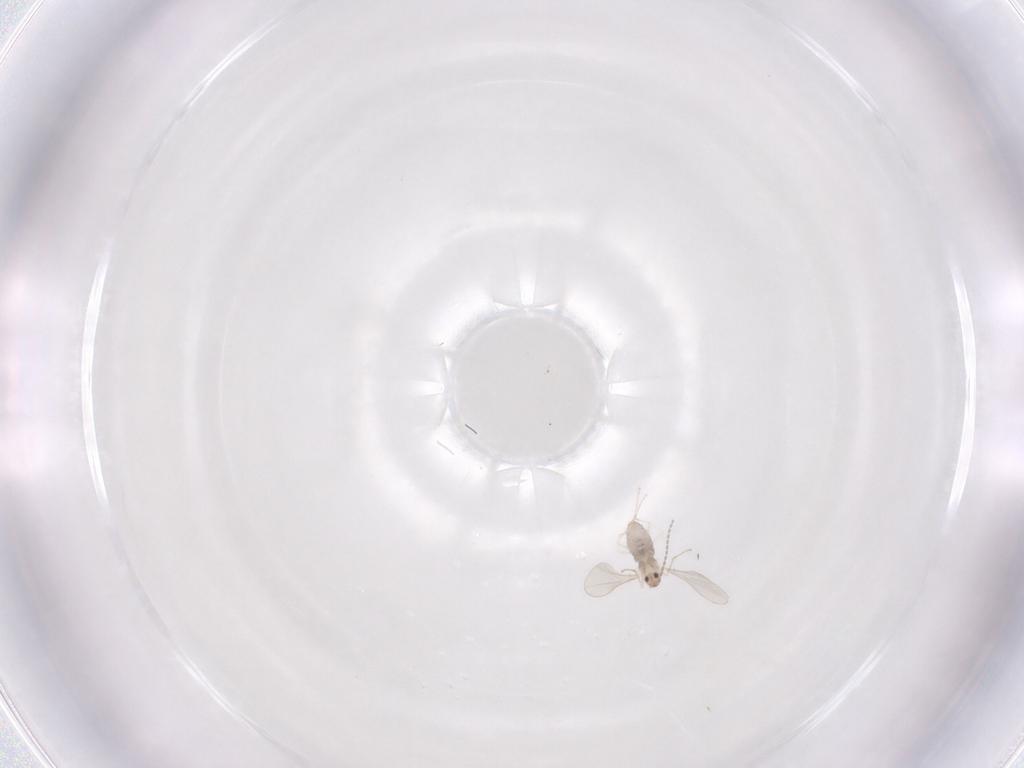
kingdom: Animalia
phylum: Arthropoda
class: Insecta
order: Diptera
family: Cecidomyiidae
